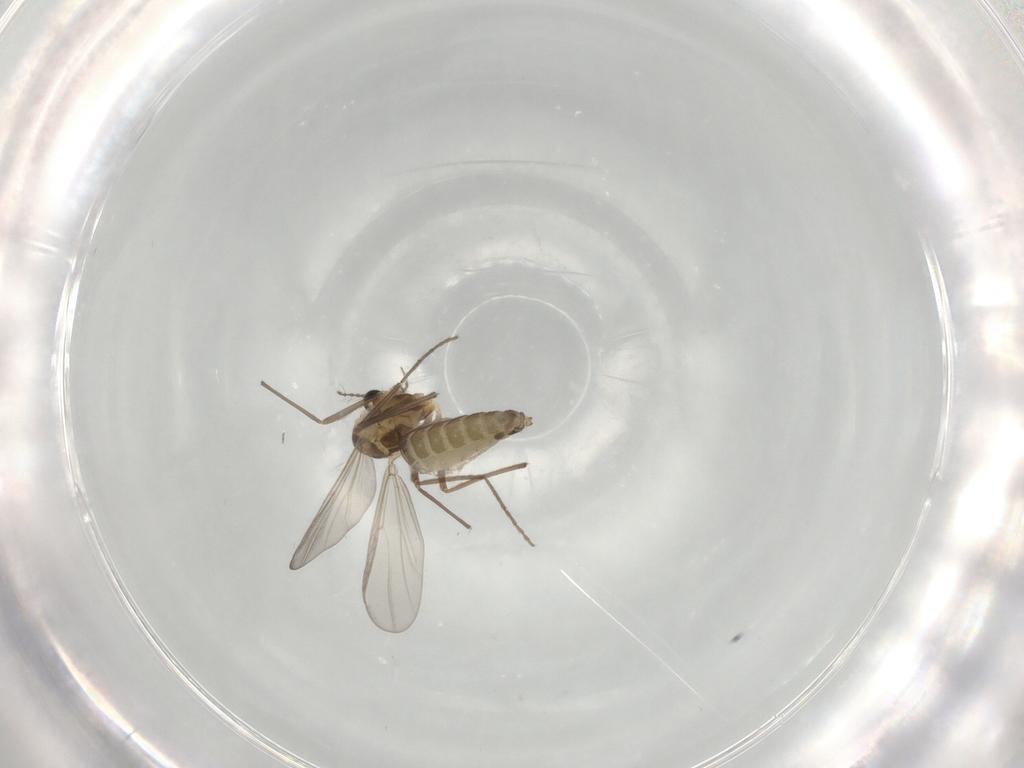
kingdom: Animalia
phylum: Arthropoda
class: Insecta
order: Diptera
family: Chironomidae
